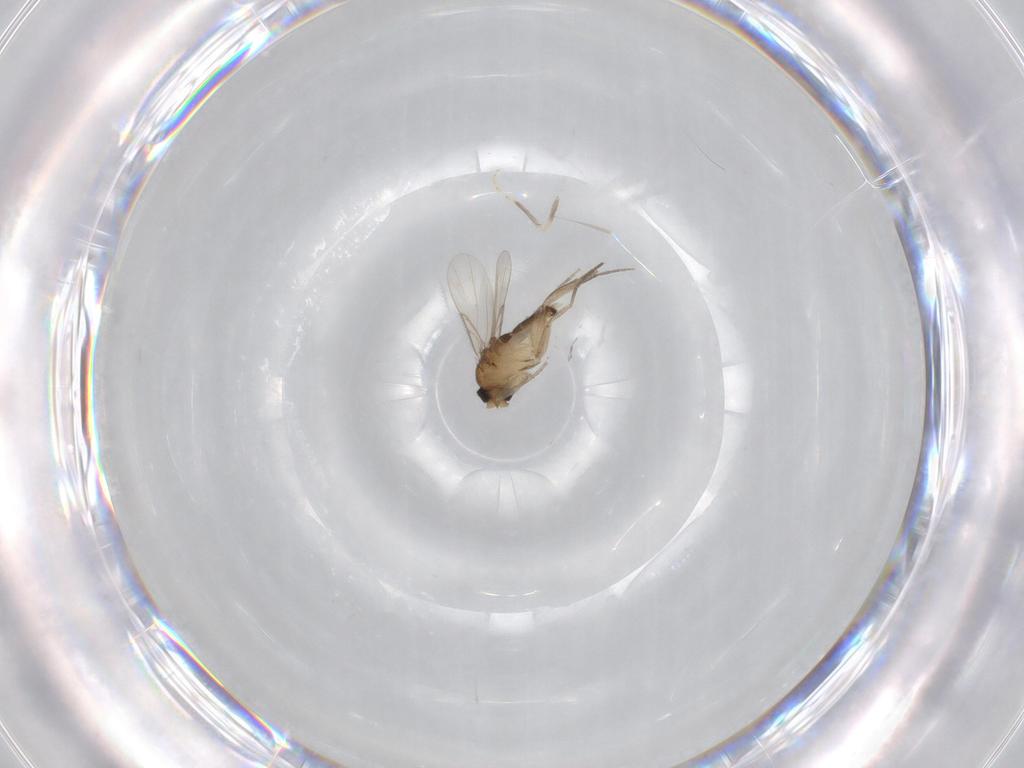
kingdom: Animalia
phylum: Arthropoda
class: Insecta
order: Diptera
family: Ceratopogonidae
